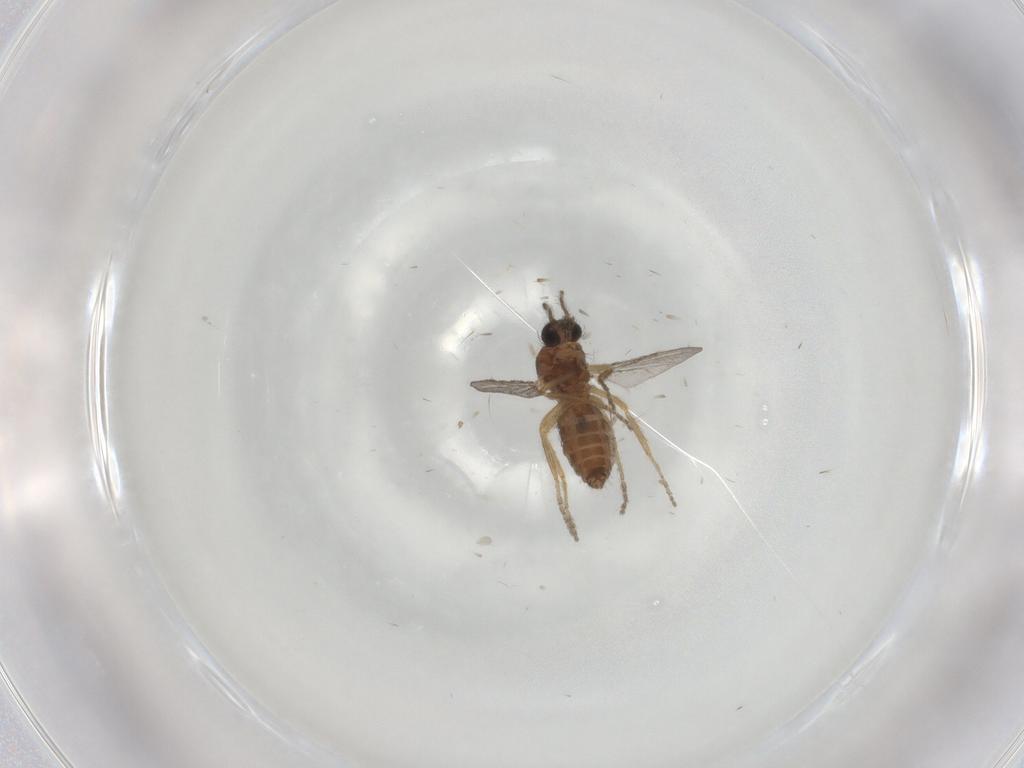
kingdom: Animalia
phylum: Arthropoda
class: Insecta
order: Diptera
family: Ceratopogonidae
